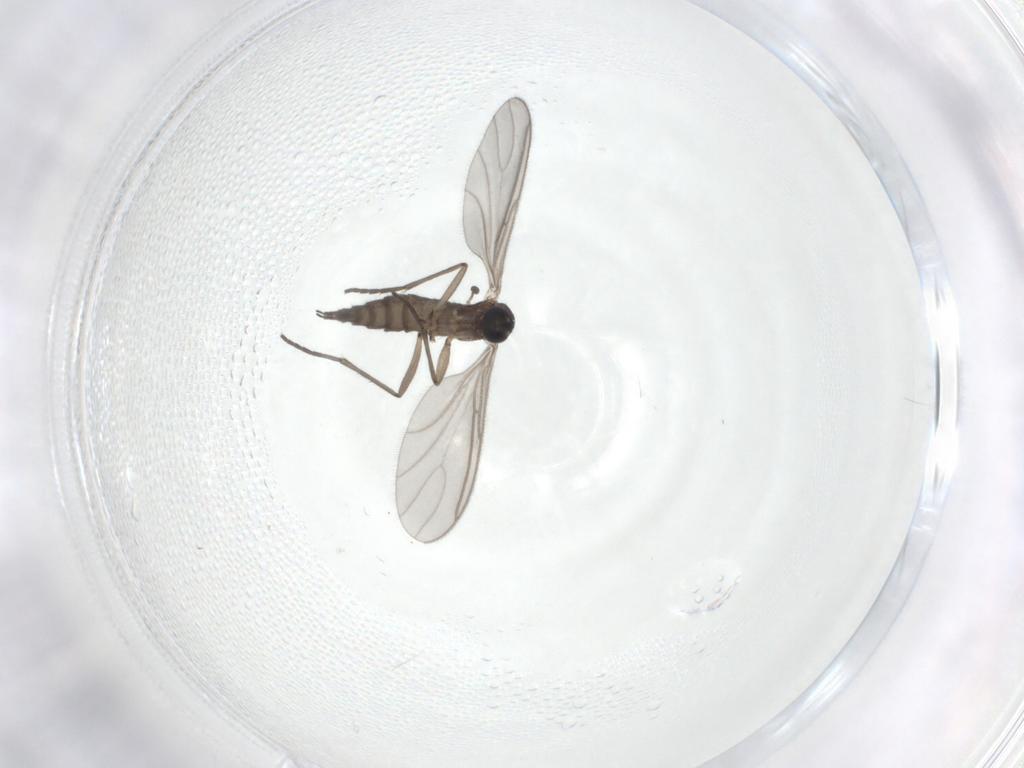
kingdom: Animalia
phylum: Arthropoda
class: Insecta
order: Diptera
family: Sciaridae
